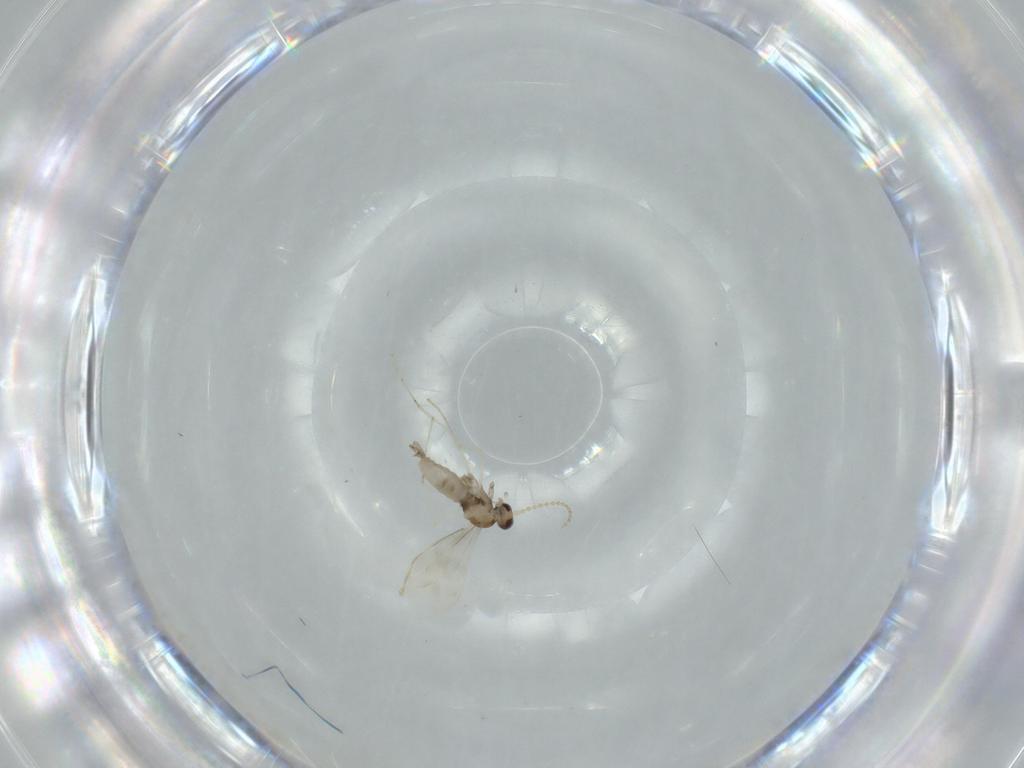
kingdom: Animalia
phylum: Arthropoda
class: Insecta
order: Diptera
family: Cecidomyiidae
